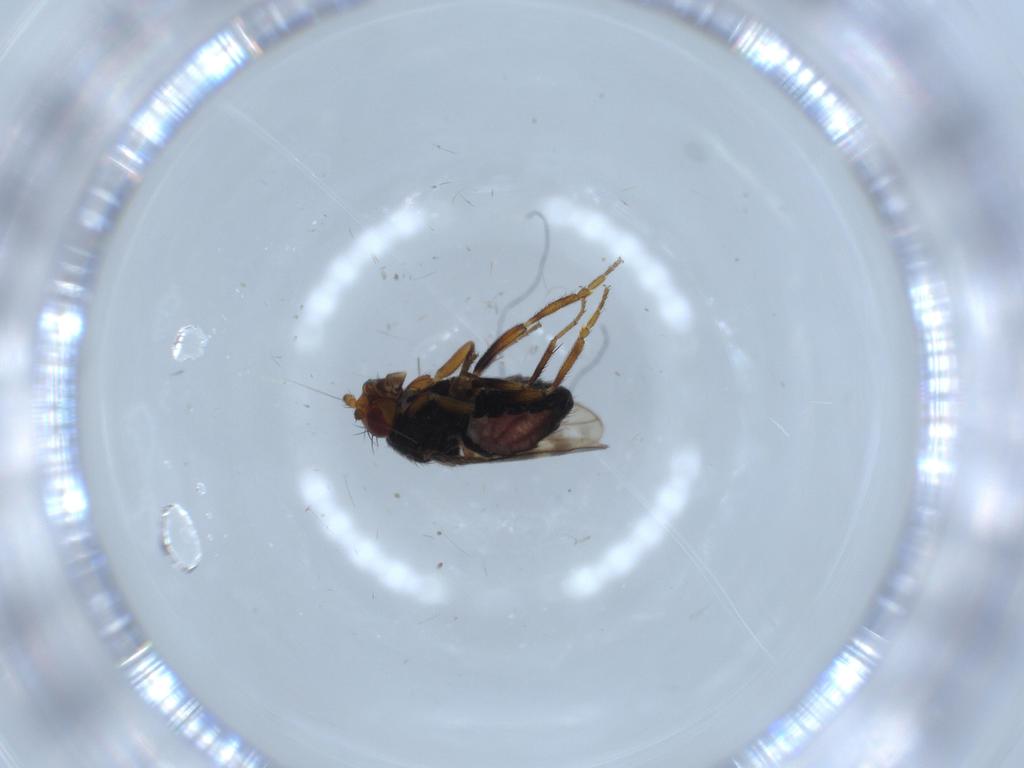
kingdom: Animalia
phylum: Arthropoda
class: Insecta
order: Diptera
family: Sphaeroceridae
